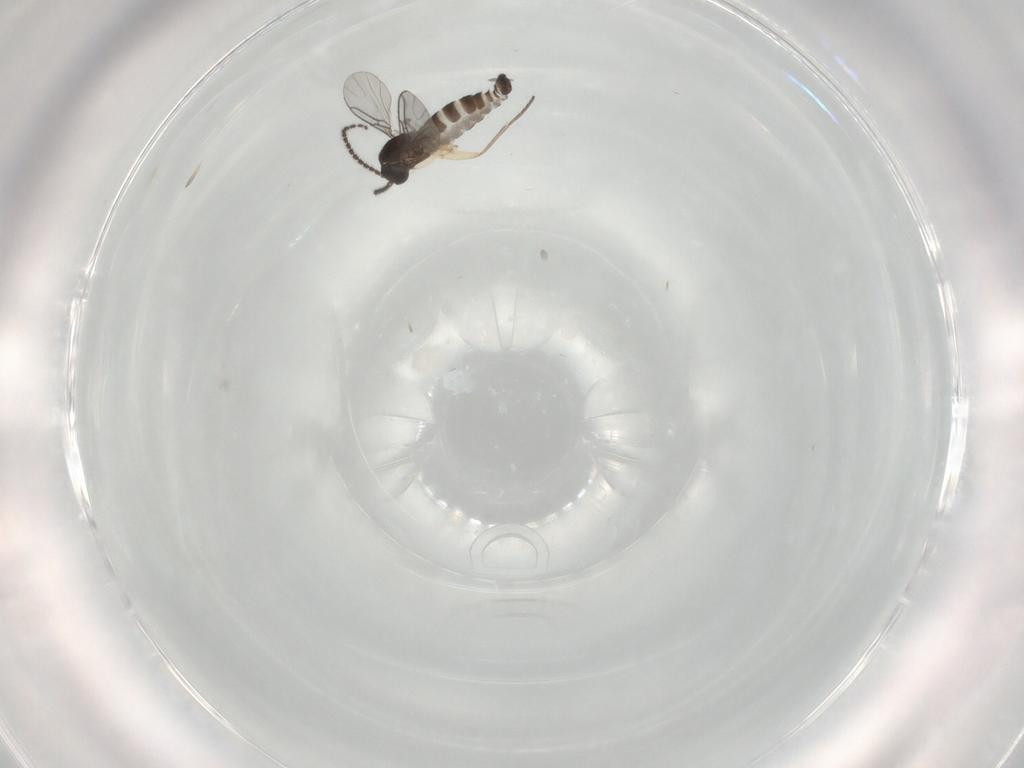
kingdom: Animalia
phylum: Arthropoda
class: Insecta
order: Diptera
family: Sciaridae
